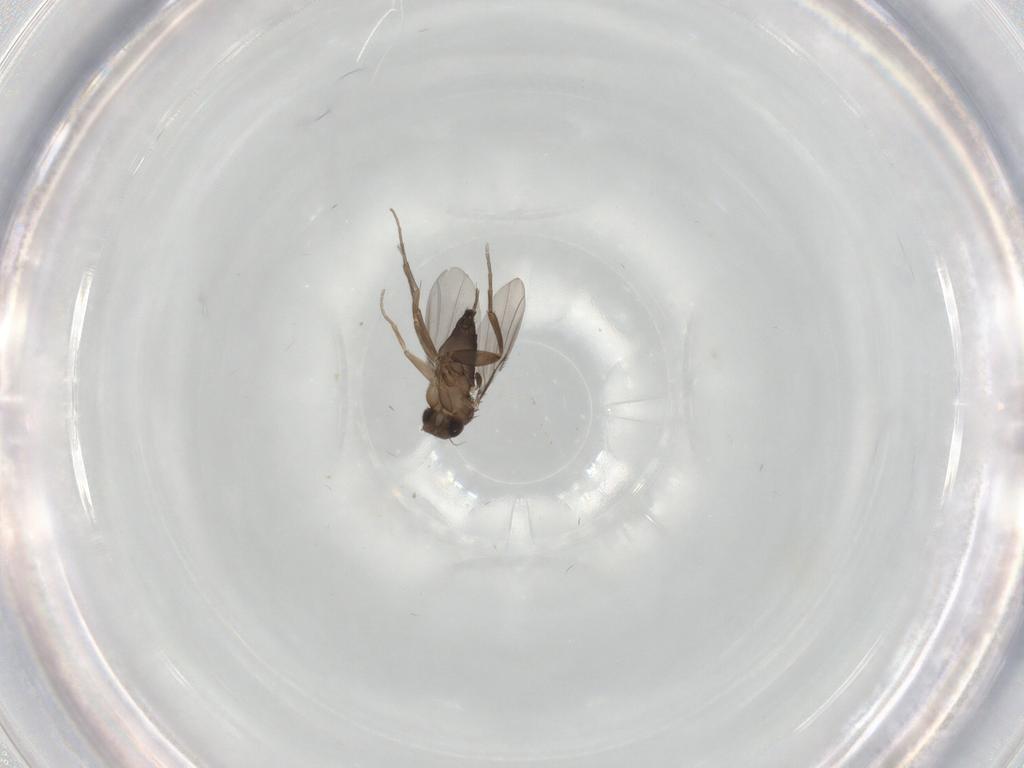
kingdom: Animalia
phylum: Arthropoda
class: Insecta
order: Diptera
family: Phoridae
